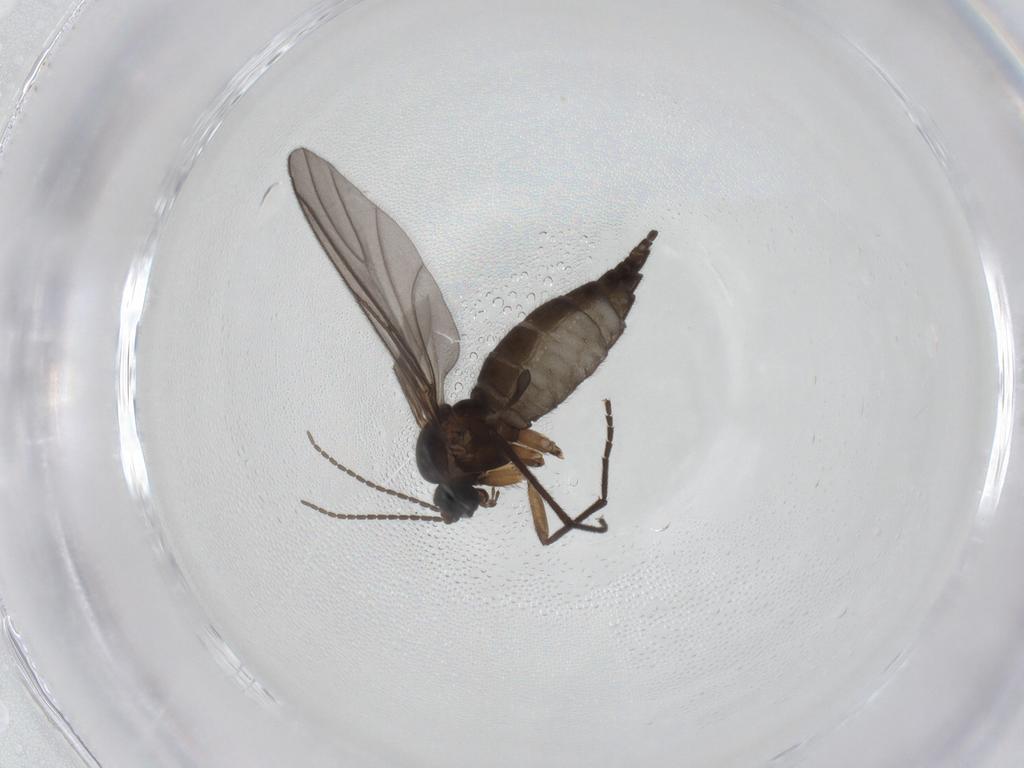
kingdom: Animalia
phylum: Arthropoda
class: Insecta
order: Diptera
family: Sciaridae
